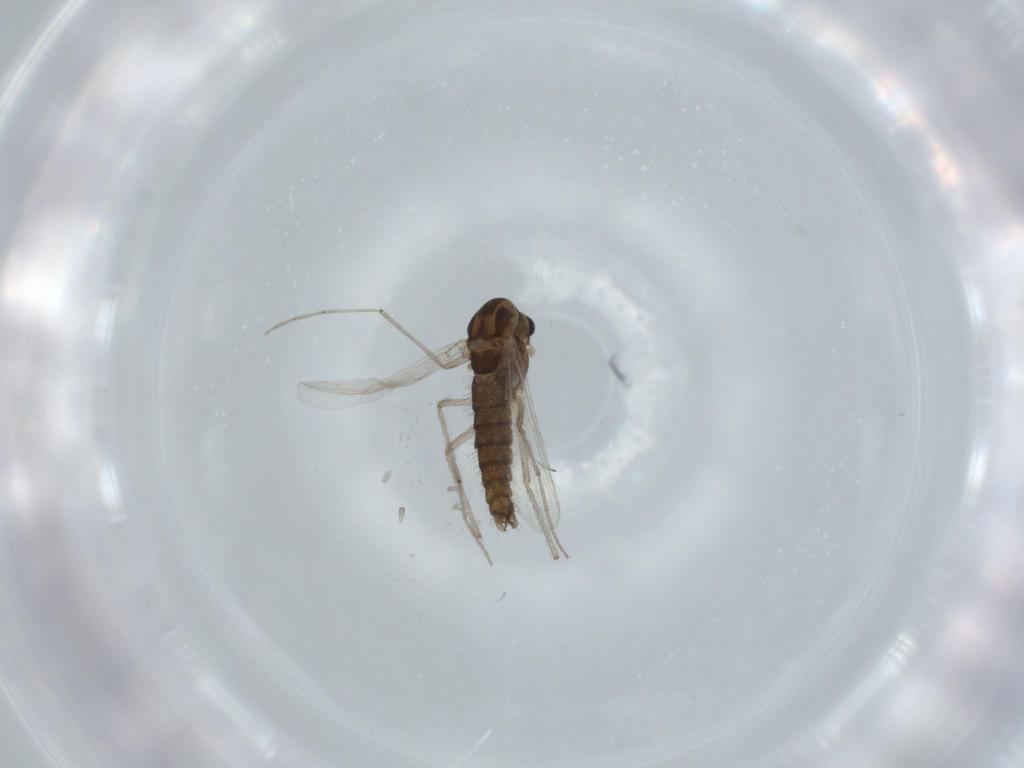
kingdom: Animalia
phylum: Arthropoda
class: Insecta
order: Diptera
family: Chironomidae
